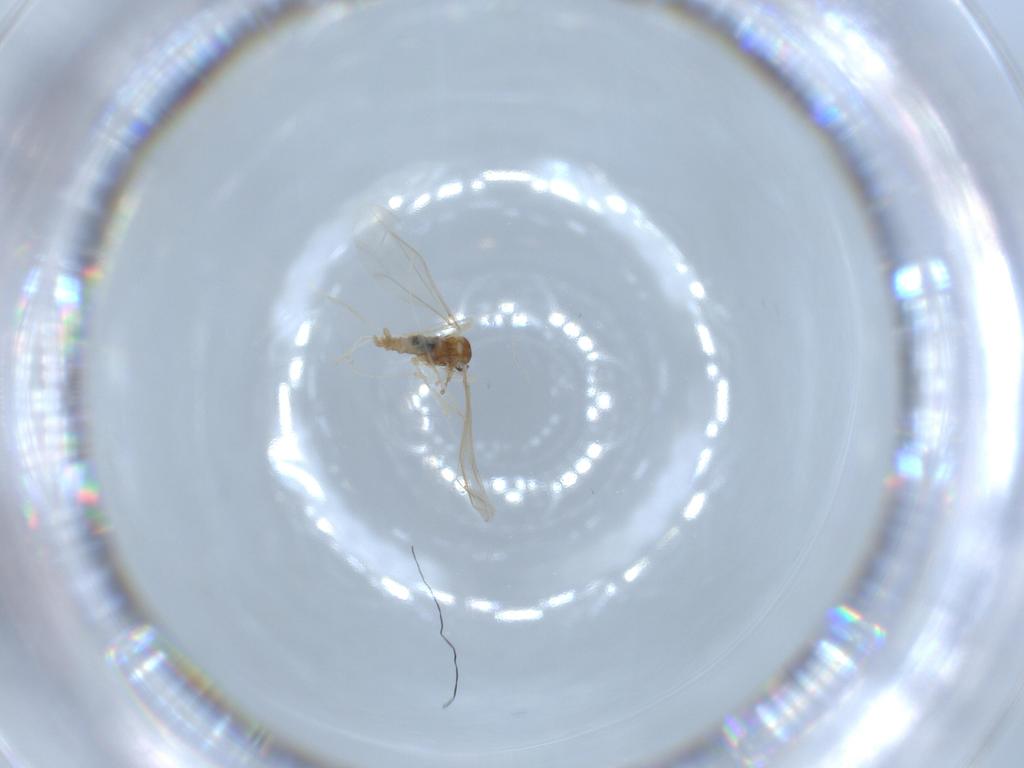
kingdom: Animalia
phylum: Arthropoda
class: Insecta
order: Diptera
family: Cecidomyiidae
